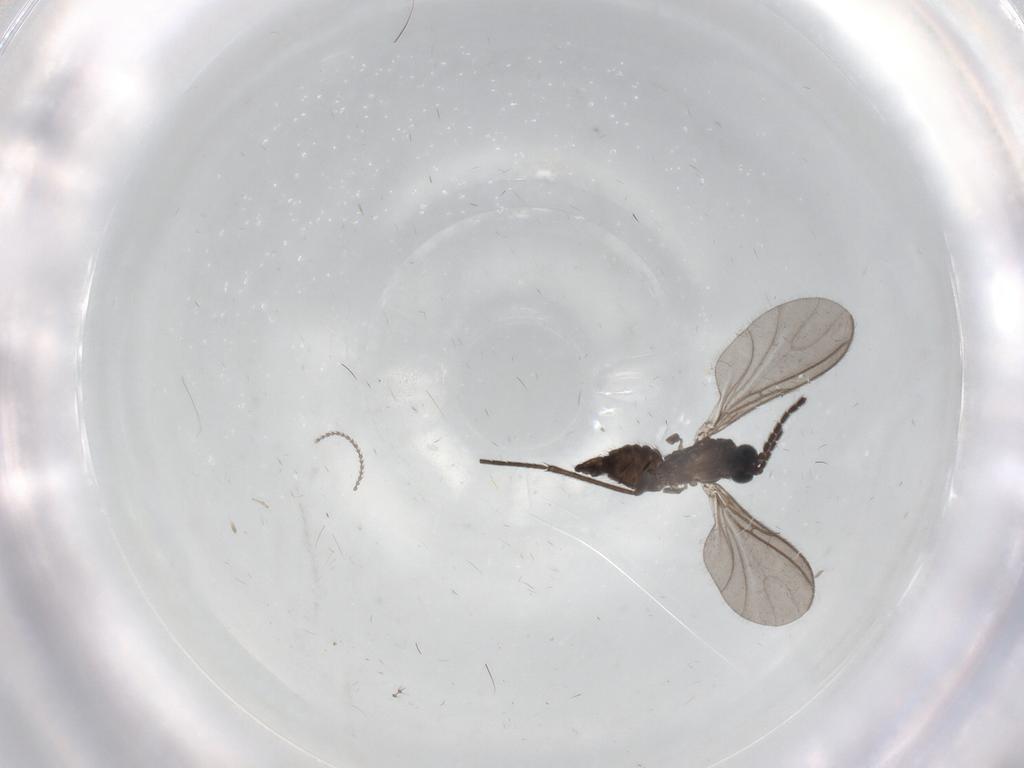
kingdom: Animalia
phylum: Arthropoda
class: Insecta
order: Diptera
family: Sciaridae
